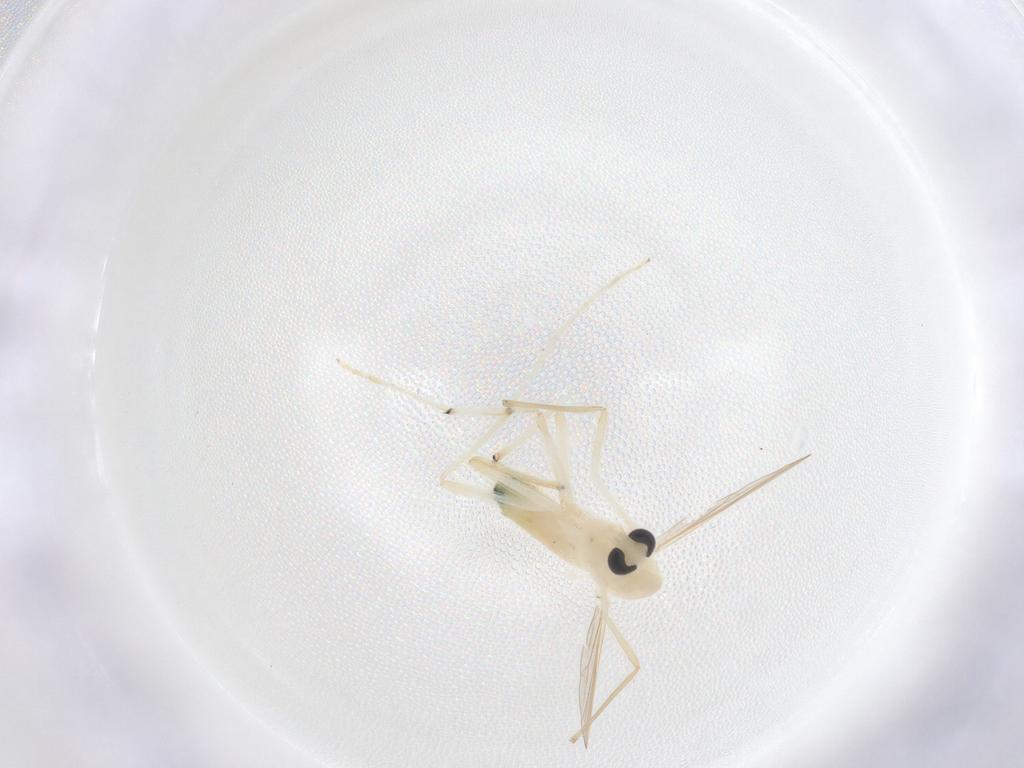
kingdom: Animalia
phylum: Arthropoda
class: Insecta
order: Diptera
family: Chironomidae
